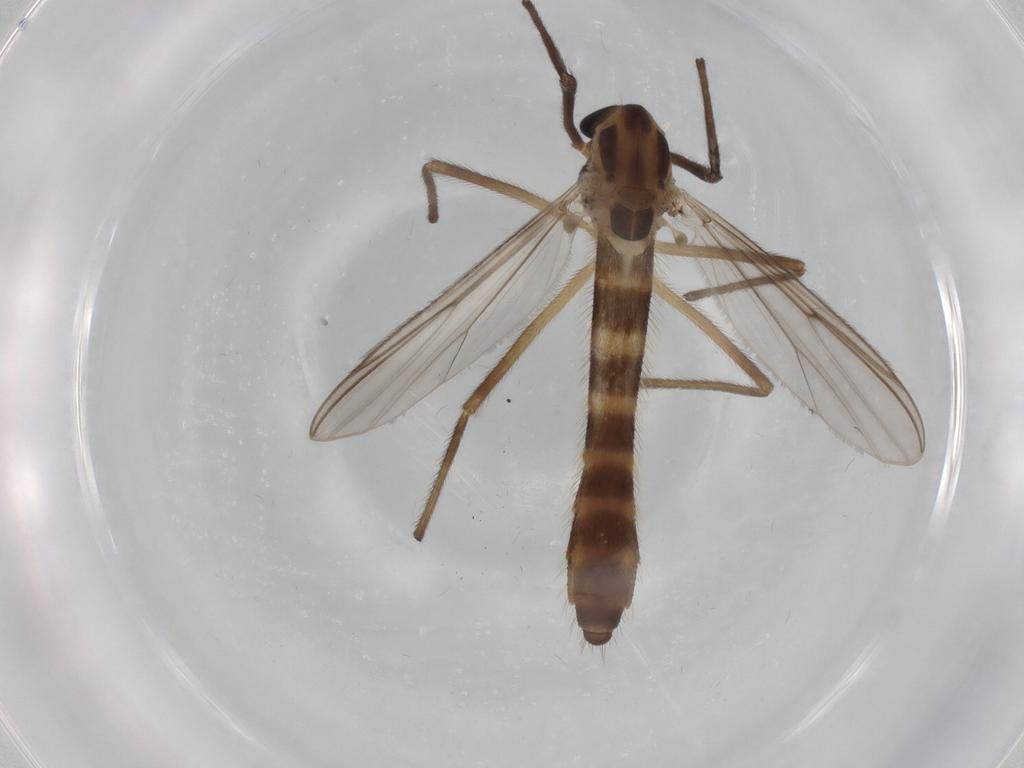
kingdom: Animalia
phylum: Arthropoda
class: Insecta
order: Diptera
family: Chironomidae
